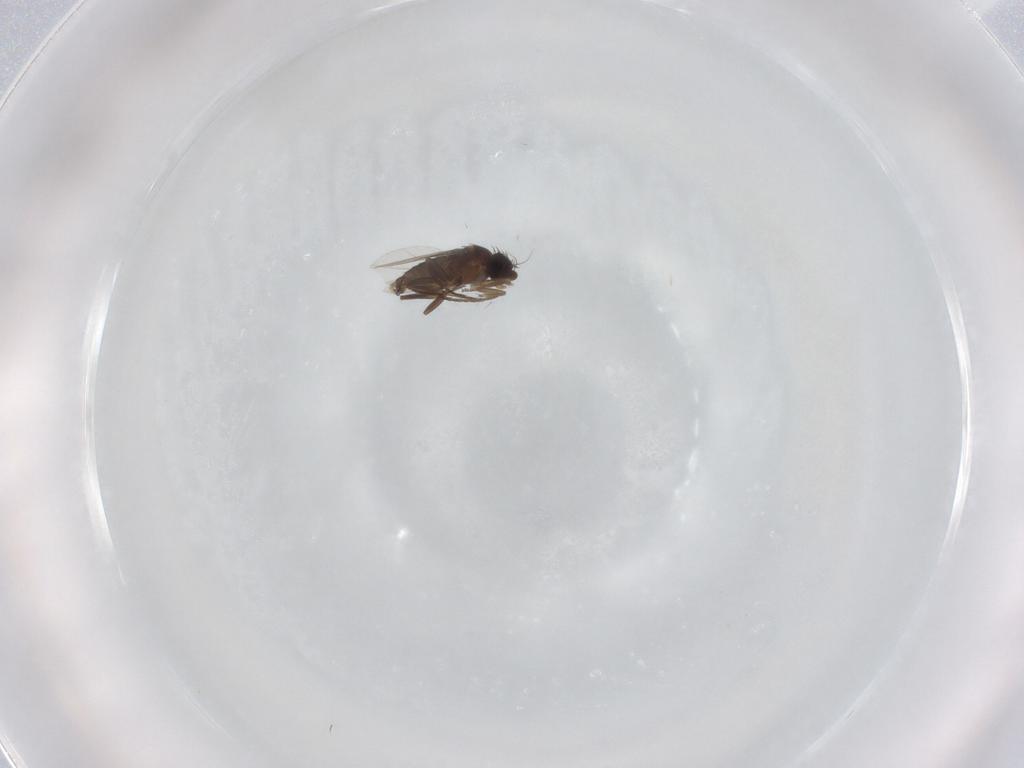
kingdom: Animalia
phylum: Arthropoda
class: Insecta
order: Diptera
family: Phoridae
